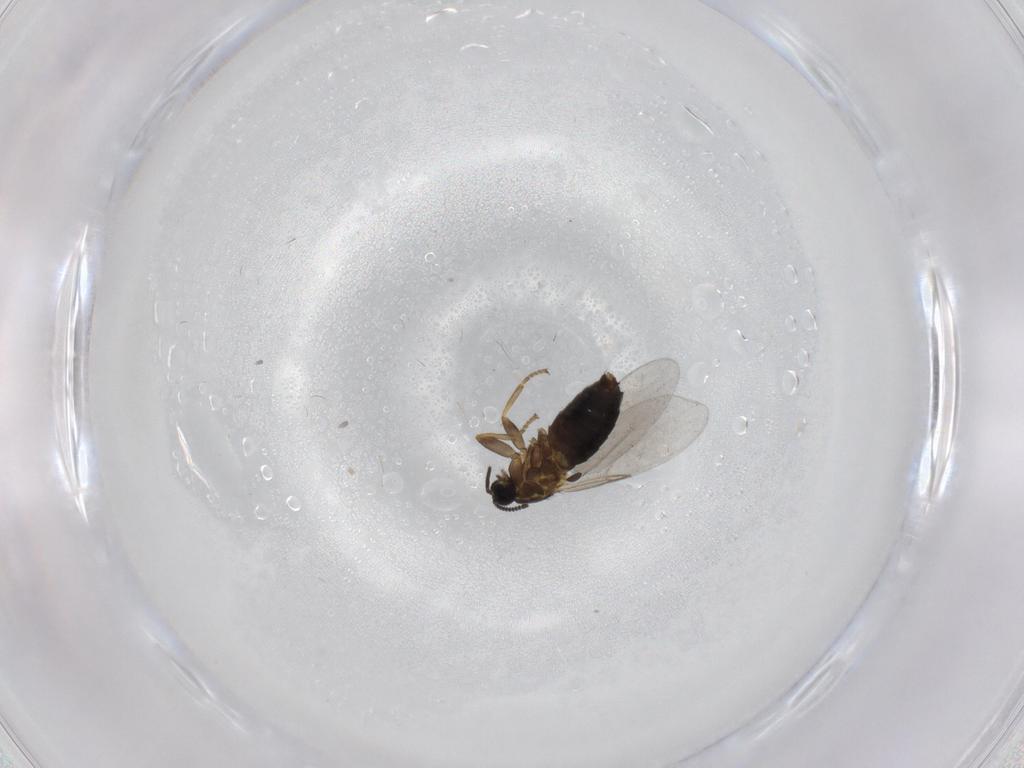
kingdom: Animalia
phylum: Arthropoda
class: Insecta
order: Diptera
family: Scatopsidae
